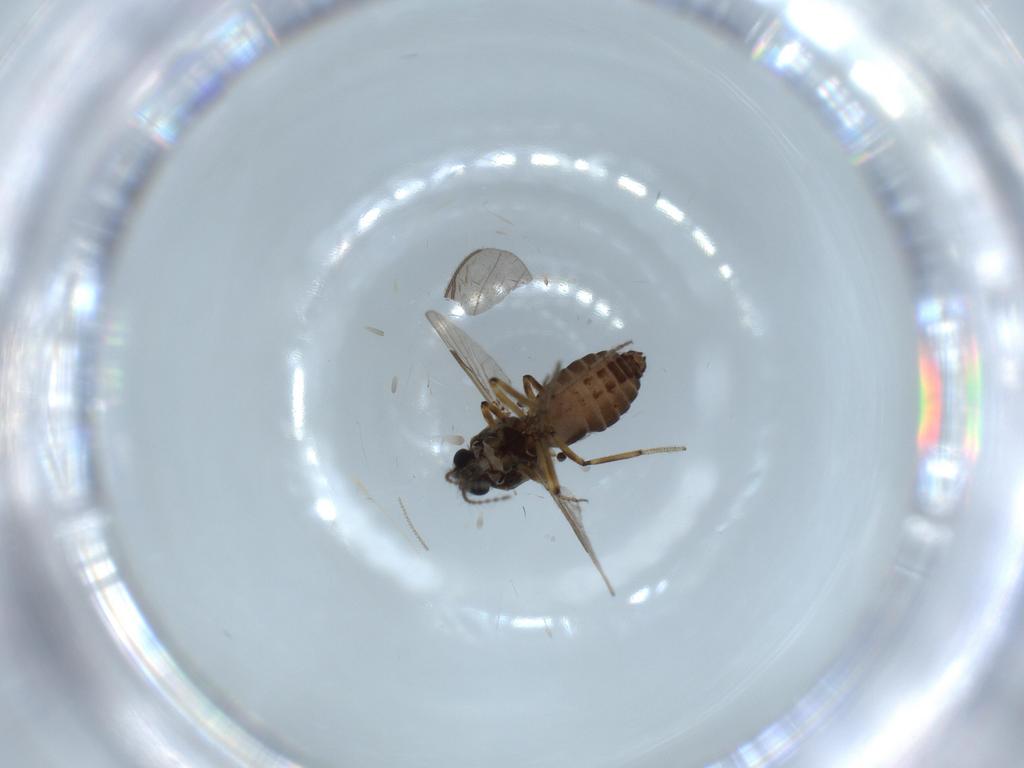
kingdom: Animalia
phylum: Arthropoda
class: Insecta
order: Diptera
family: Ceratopogonidae
